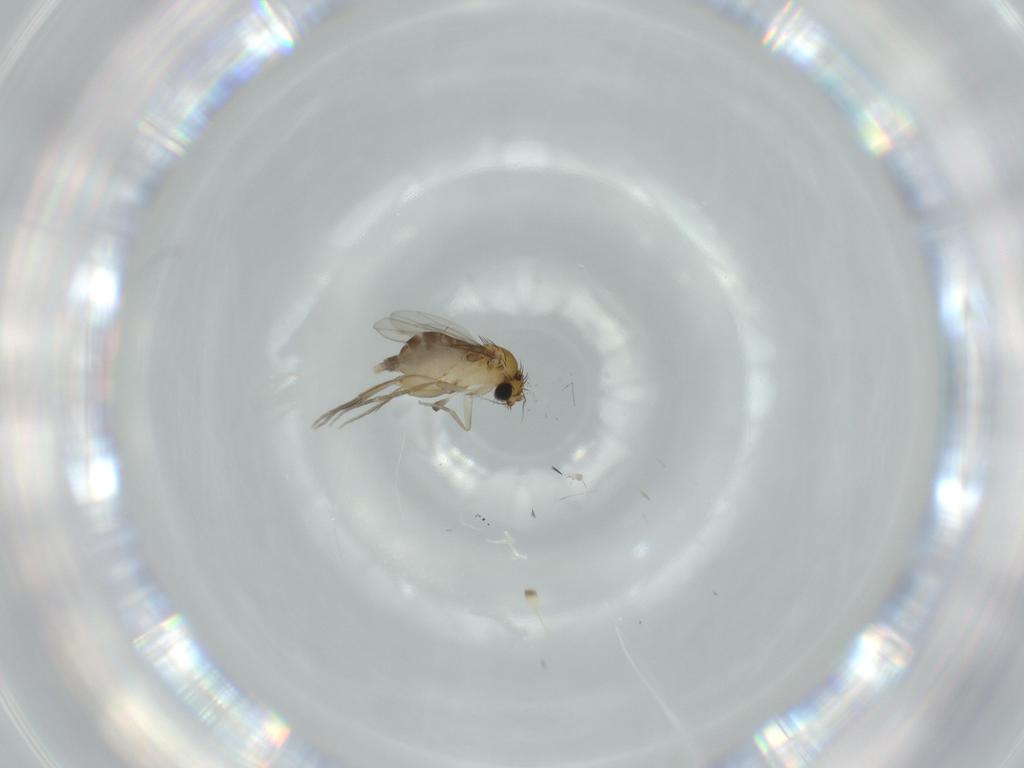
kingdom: Animalia
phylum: Arthropoda
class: Insecta
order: Diptera
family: Phoridae
